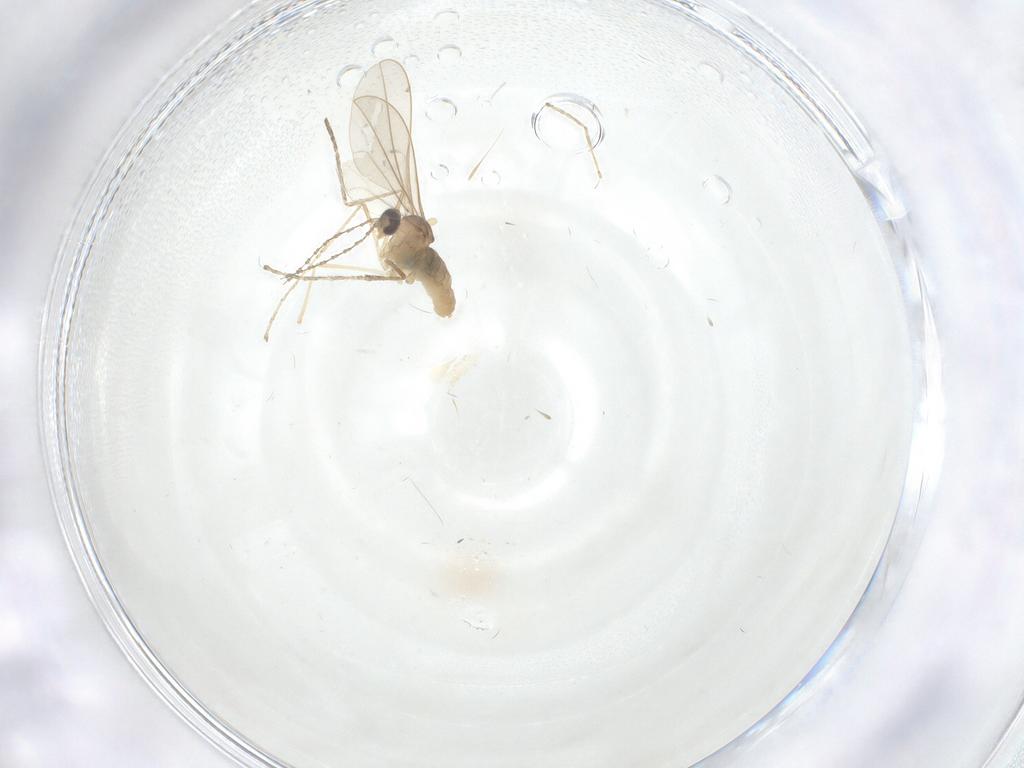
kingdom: Animalia
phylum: Arthropoda
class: Insecta
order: Diptera
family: Cecidomyiidae
